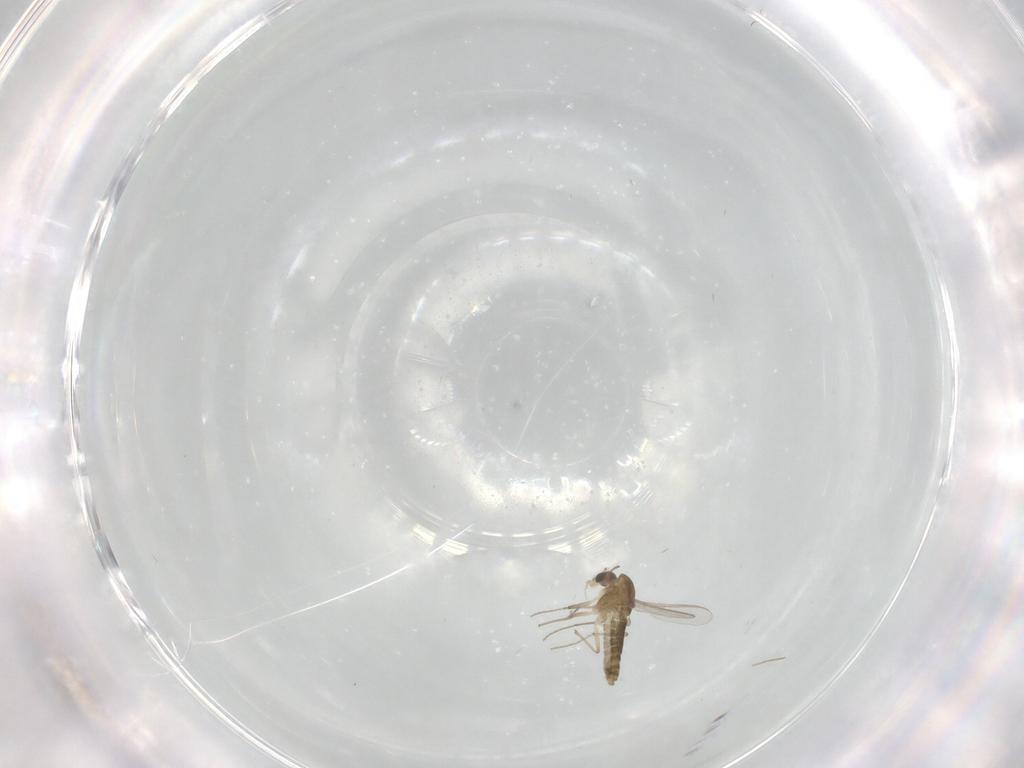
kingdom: Animalia
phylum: Arthropoda
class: Insecta
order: Diptera
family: Chironomidae
